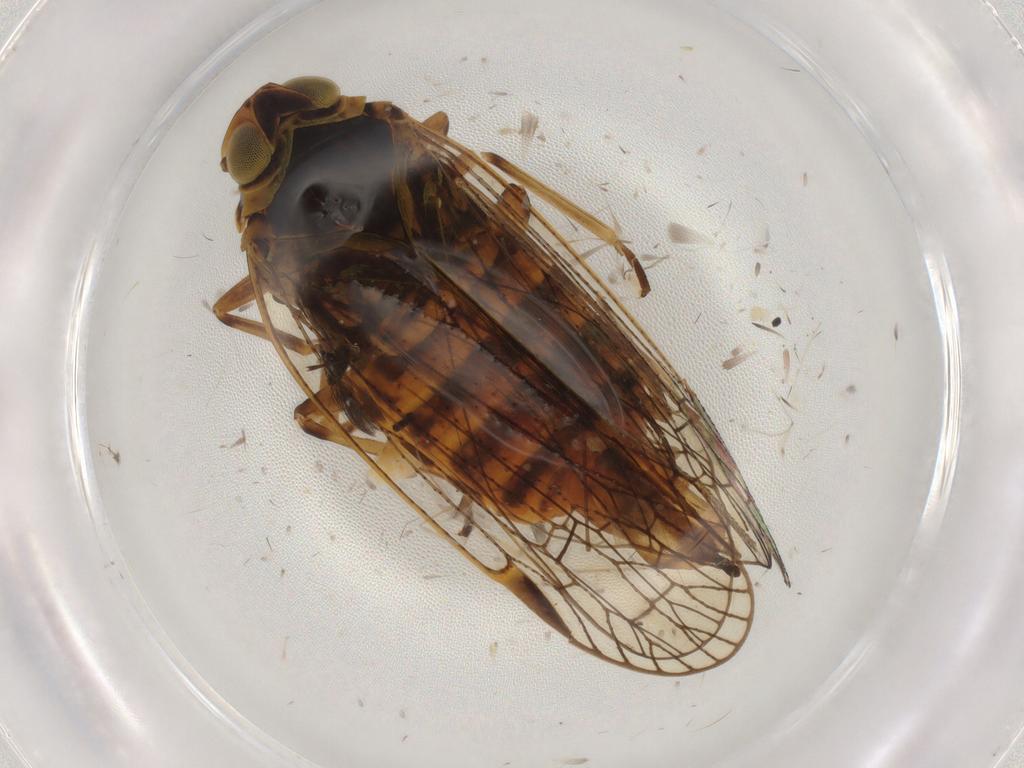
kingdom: Animalia
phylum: Arthropoda
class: Insecta
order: Hemiptera
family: Cixiidae
